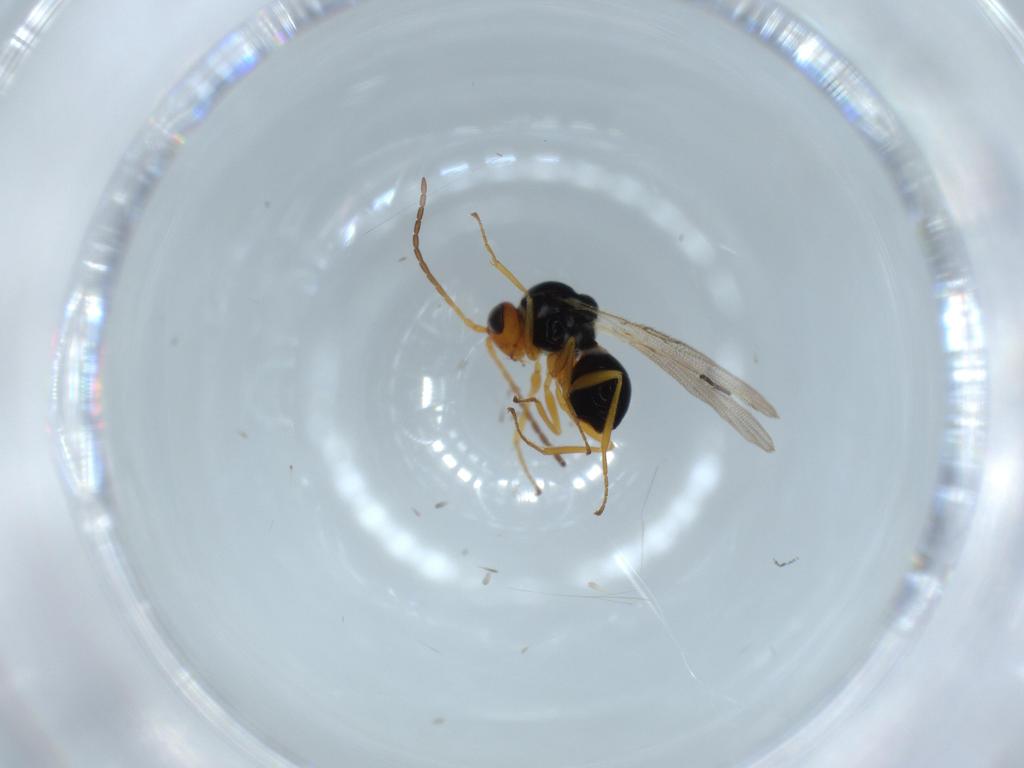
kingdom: Animalia
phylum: Arthropoda
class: Insecta
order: Hymenoptera
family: Figitidae
